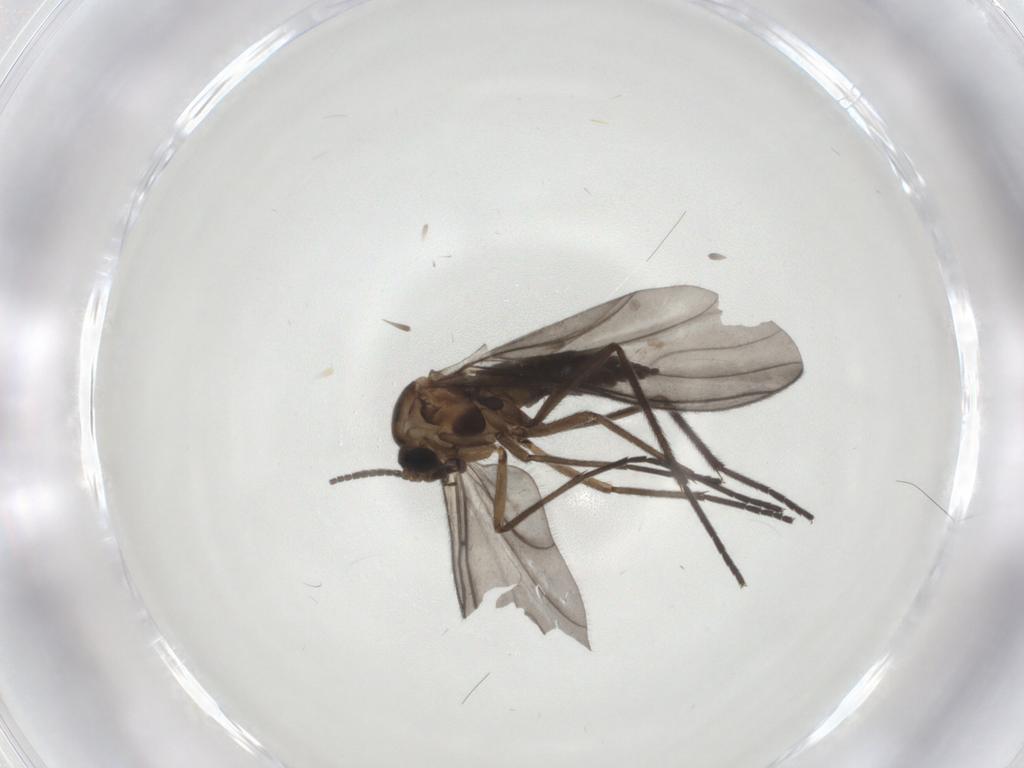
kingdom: Animalia
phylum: Arthropoda
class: Insecta
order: Diptera
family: Sciaridae
